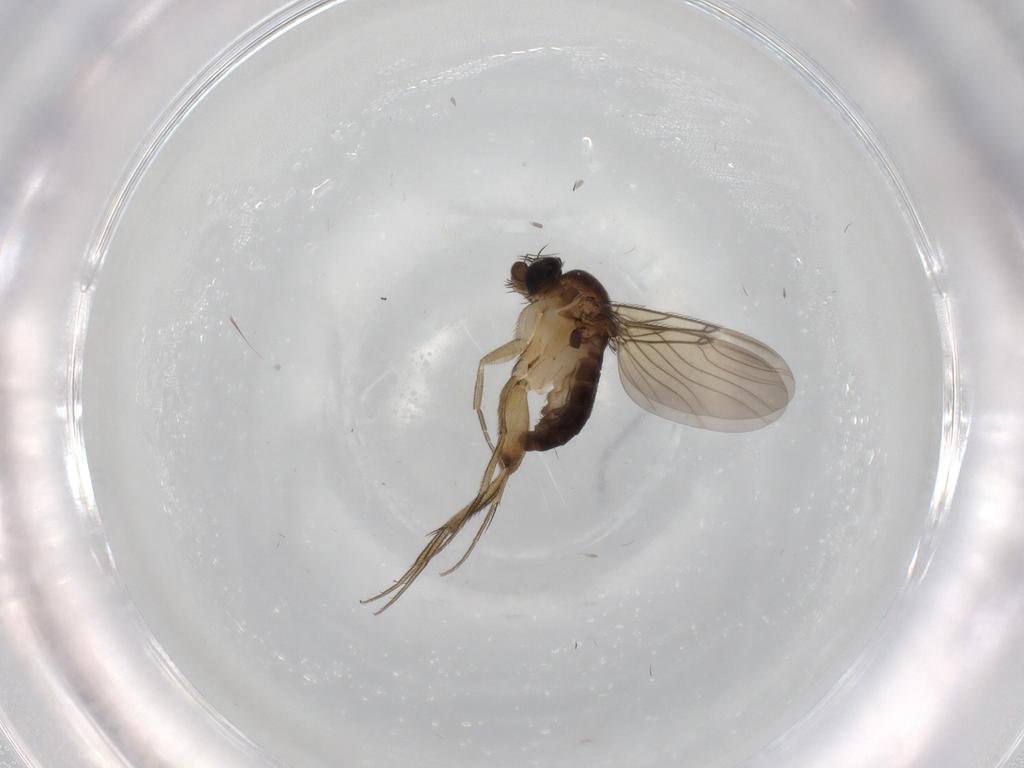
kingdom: Animalia
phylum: Arthropoda
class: Insecta
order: Diptera
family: Phoridae
